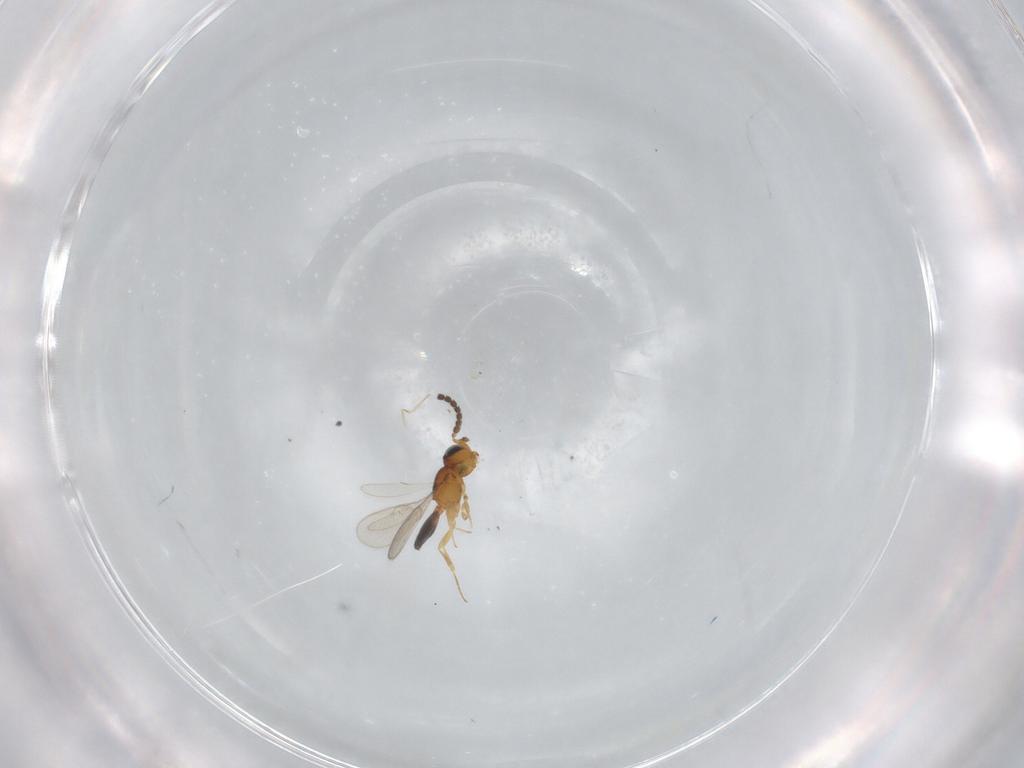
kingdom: Animalia
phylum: Arthropoda
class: Insecta
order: Hymenoptera
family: Scelionidae
